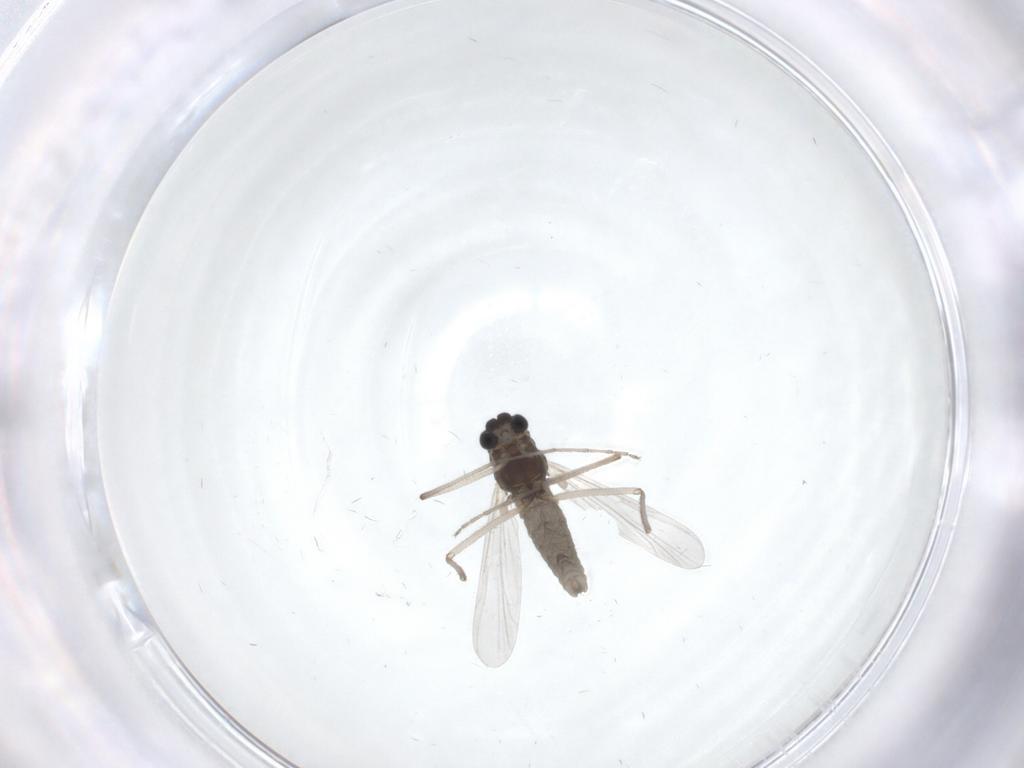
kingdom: Animalia
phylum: Arthropoda
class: Insecta
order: Diptera
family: Chironomidae
